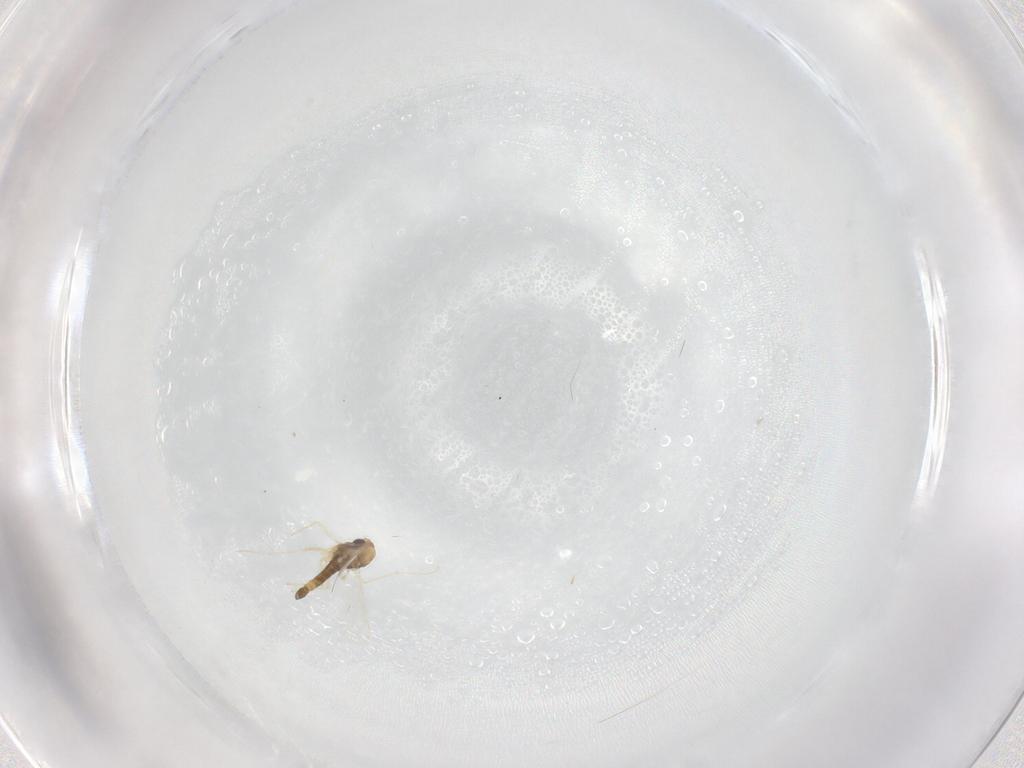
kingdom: Animalia
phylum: Arthropoda
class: Insecta
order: Diptera
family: Chironomidae
